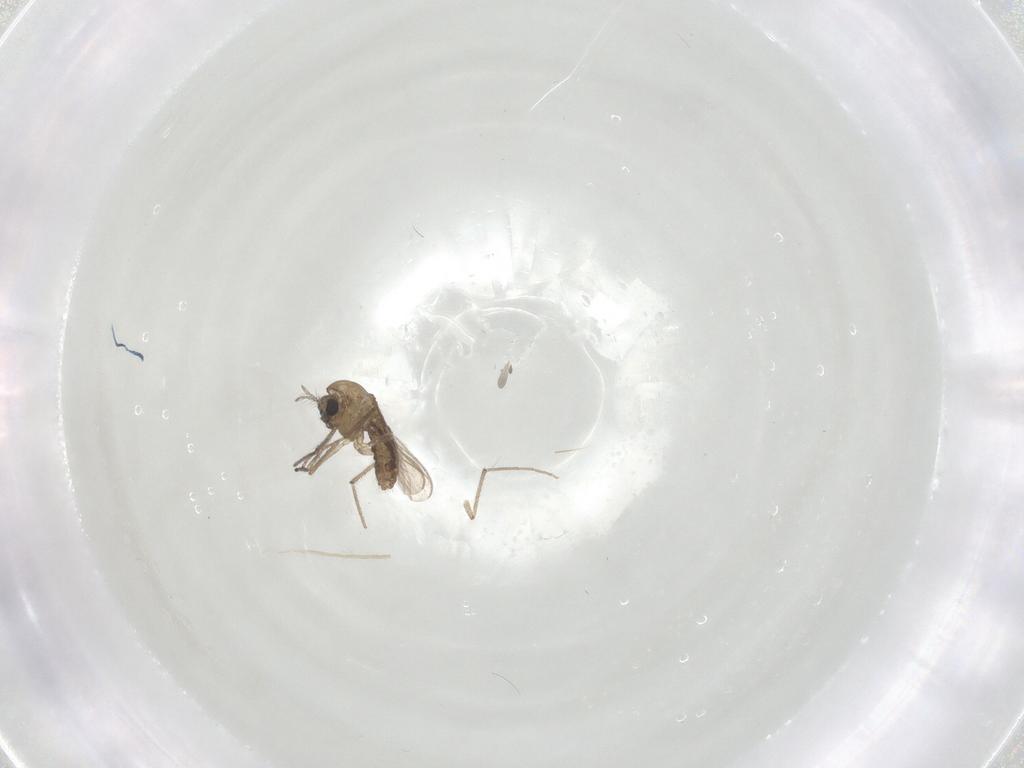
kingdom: Animalia
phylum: Arthropoda
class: Insecta
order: Diptera
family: Chironomidae
